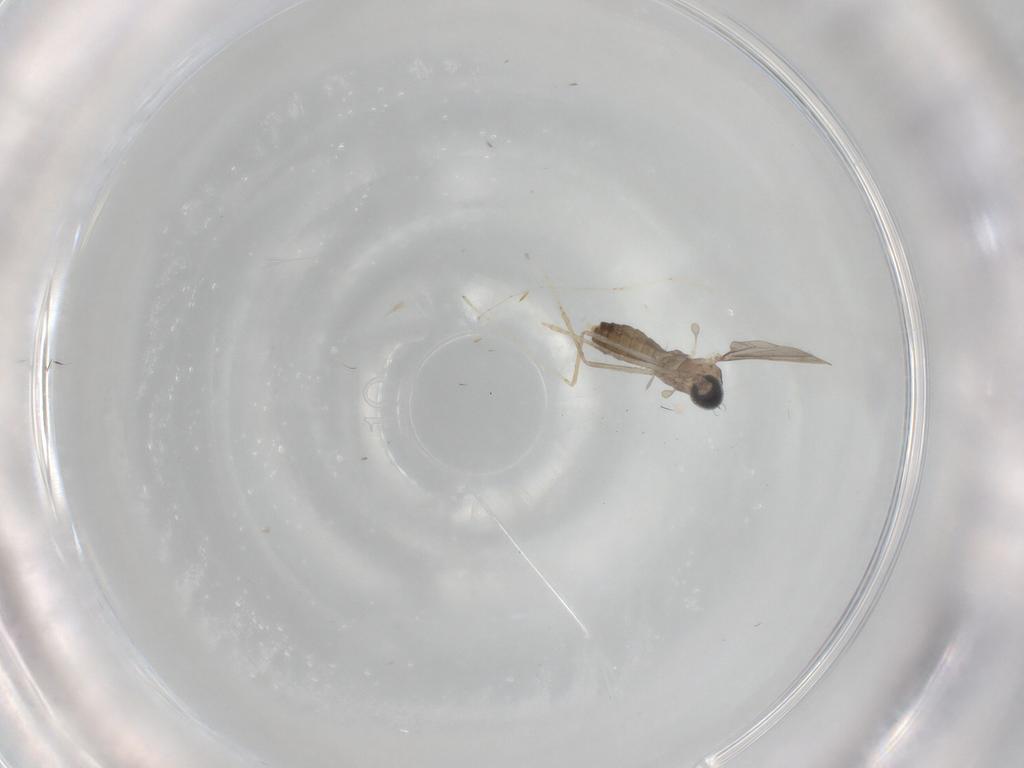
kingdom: Animalia
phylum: Arthropoda
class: Insecta
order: Diptera
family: Cecidomyiidae
